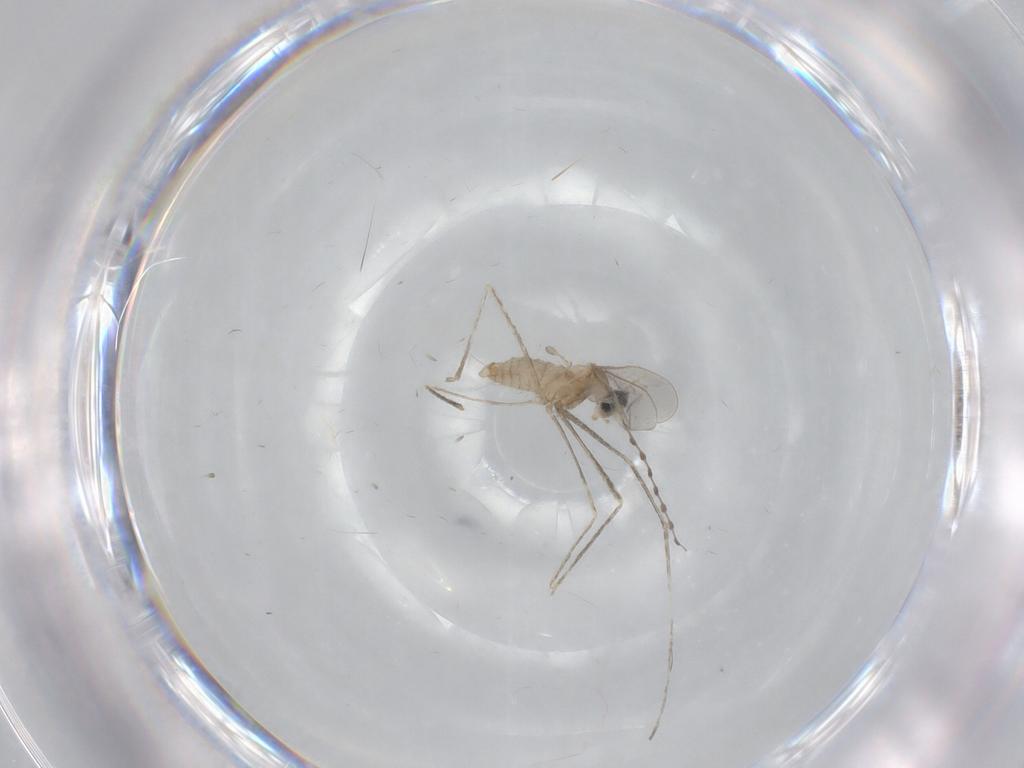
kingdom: Animalia
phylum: Arthropoda
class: Insecta
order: Diptera
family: Cecidomyiidae
